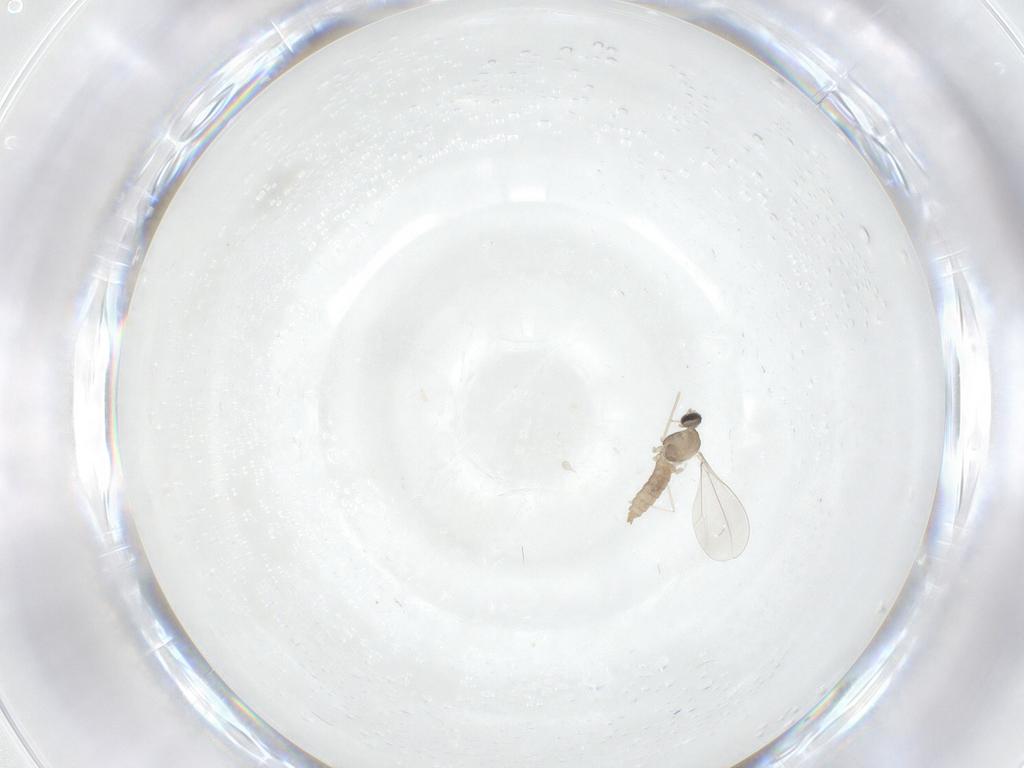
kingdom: Animalia
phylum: Arthropoda
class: Insecta
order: Diptera
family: Cecidomyiidae
